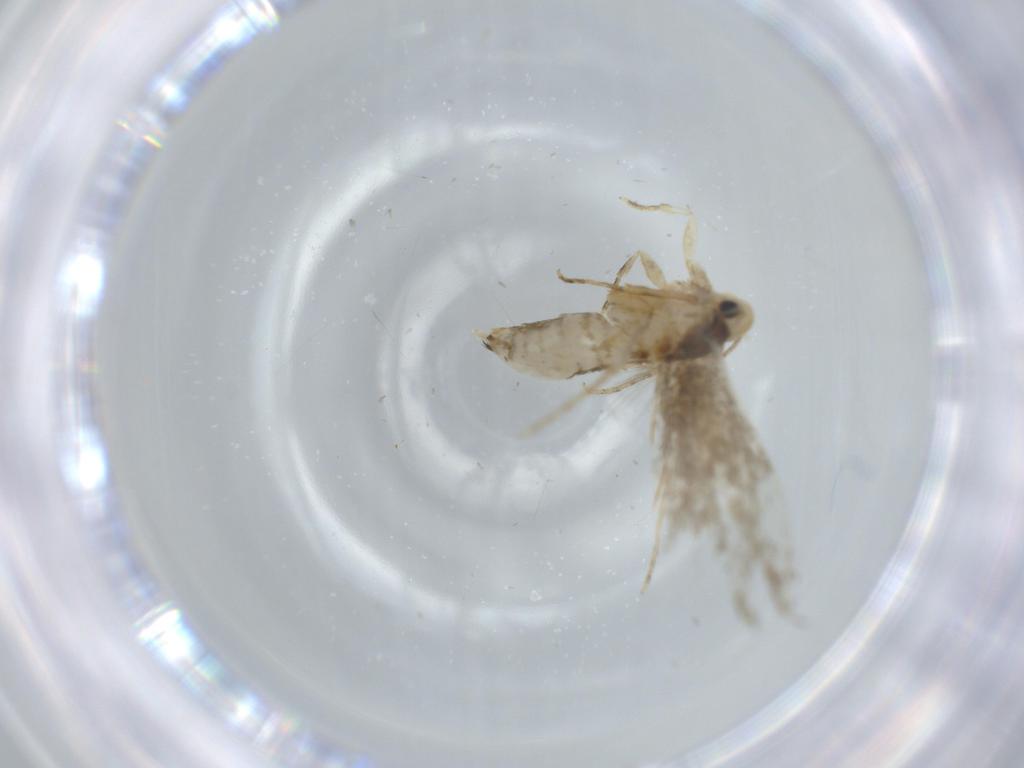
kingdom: Animalia
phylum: Arthropoda
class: Insecta
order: Lepidoptera
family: Tineidae
